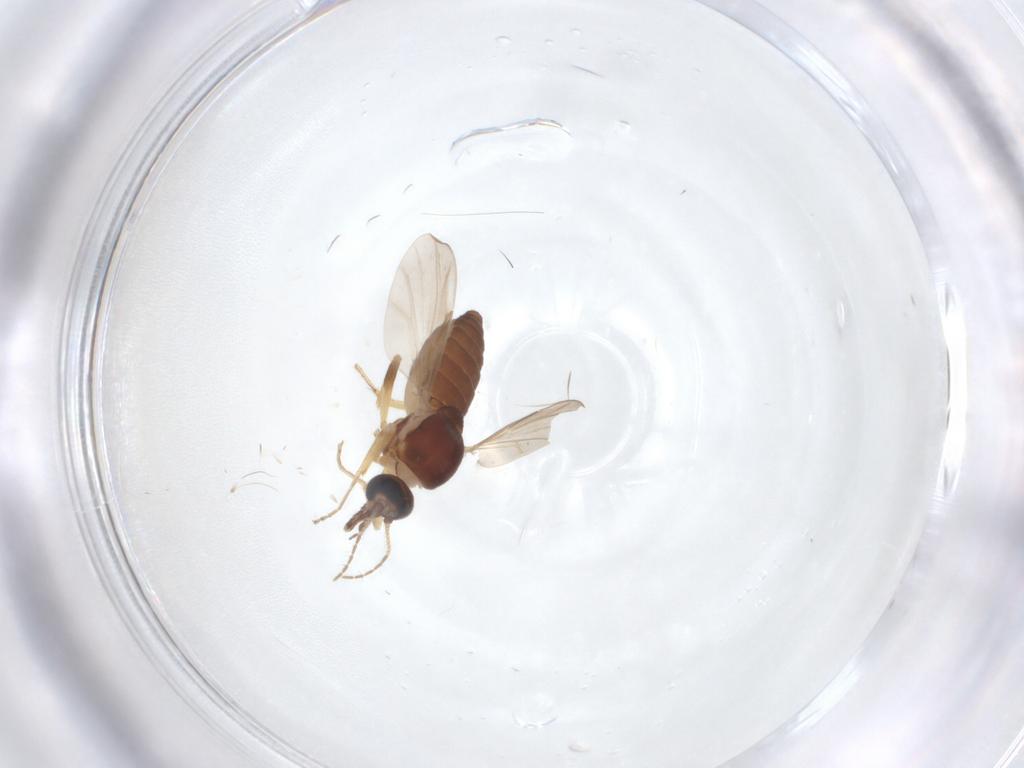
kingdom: Animalia
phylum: Arthropoda
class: Insecta
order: Diptera
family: Ceratopogonidae
